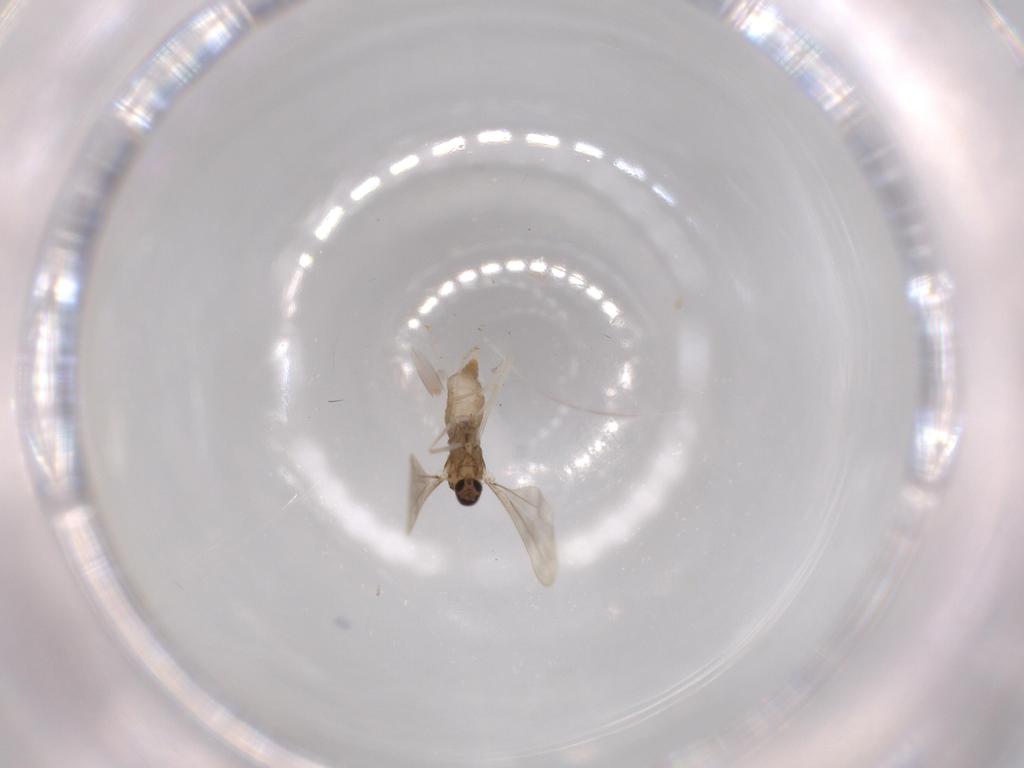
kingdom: Animalia
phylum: Arthropoda
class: Insecta
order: Diptera
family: Cecidomyiidae
